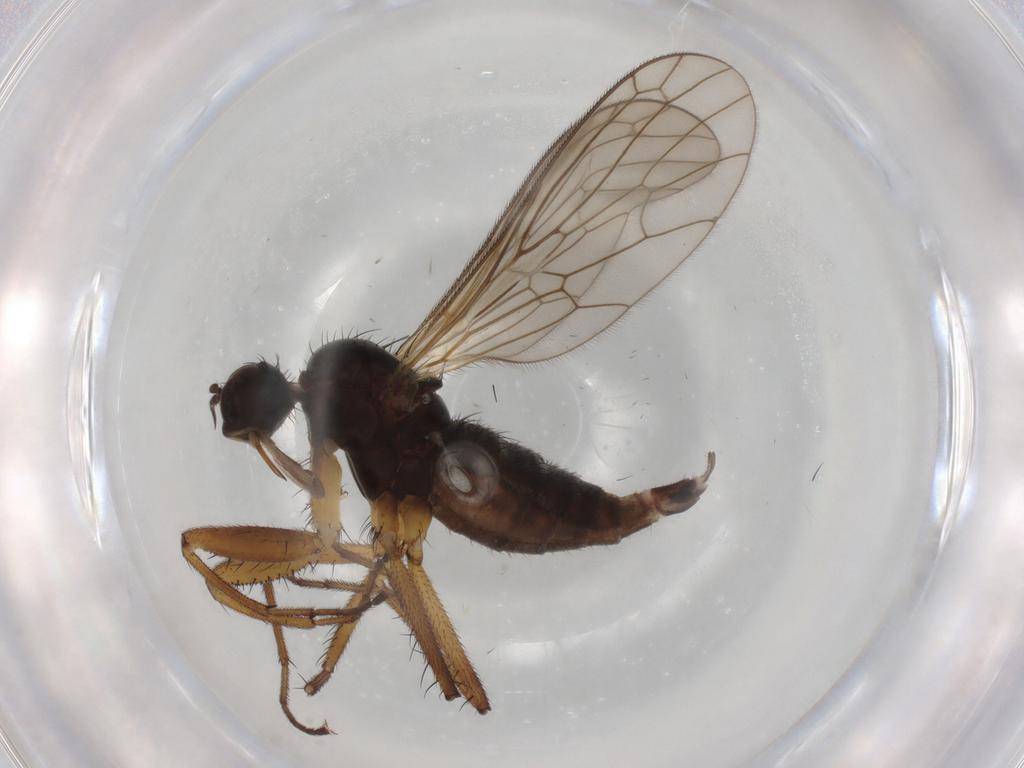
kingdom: Animalia
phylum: Arthropoda
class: Insecta
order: Diptera
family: Empididae
